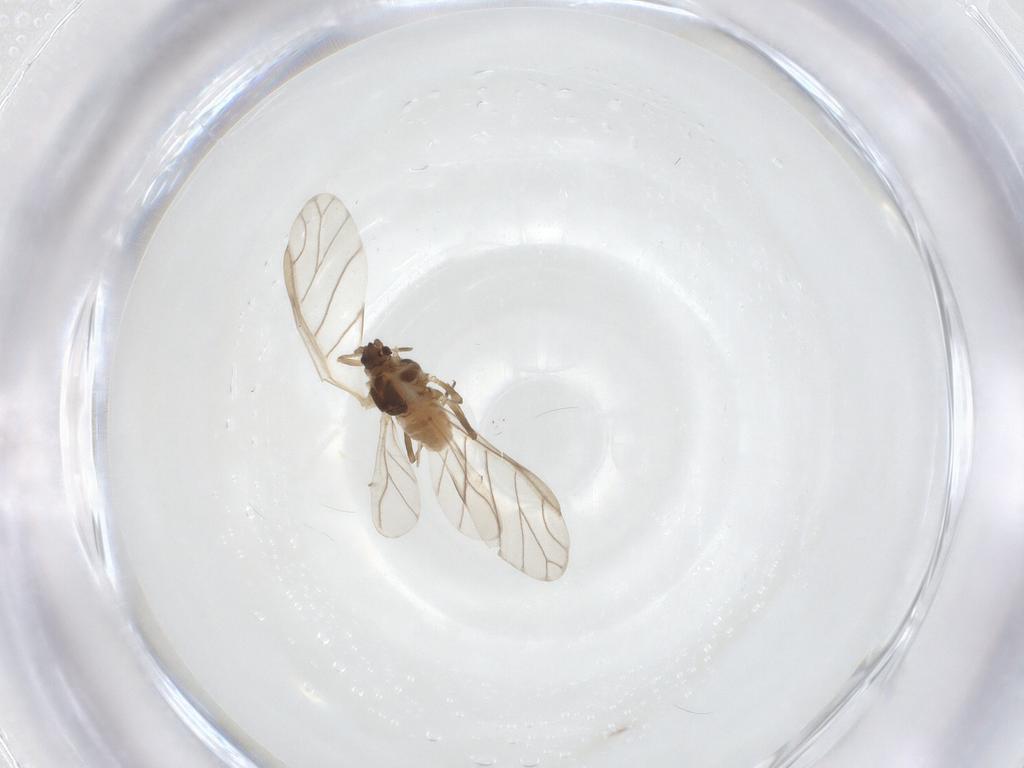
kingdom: Animalia
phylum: Arthropoda
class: Insecta
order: Hemiptera
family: Aphididae
